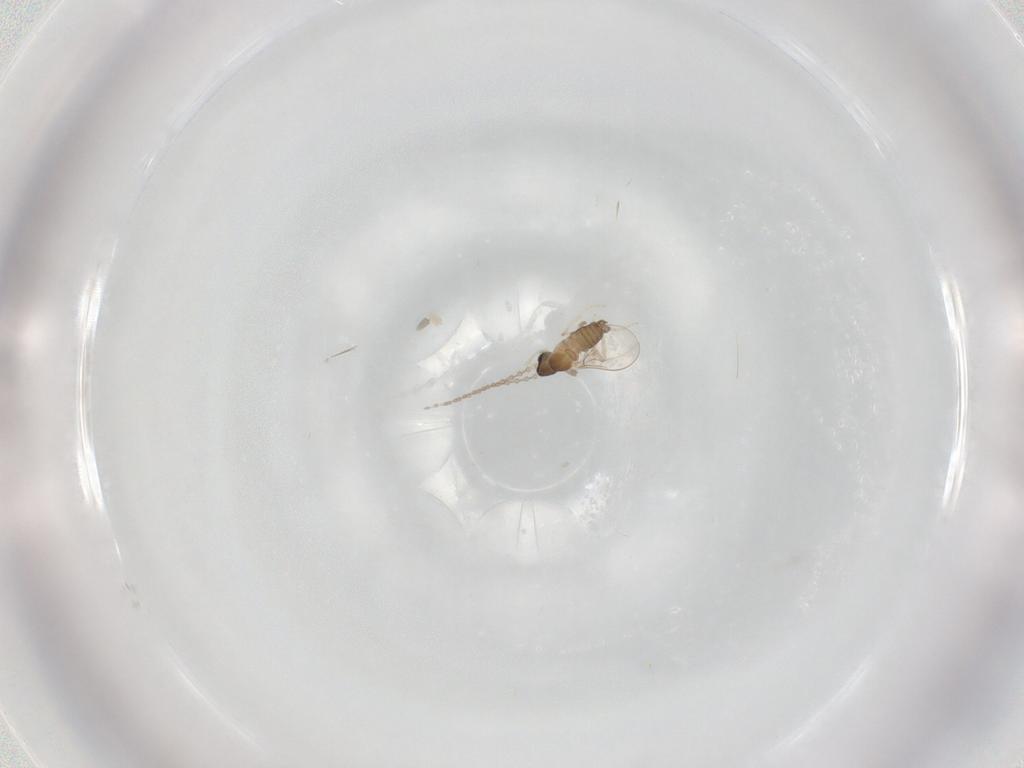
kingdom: Animalia
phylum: Arthropoda
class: Insecta
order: Diptera
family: Cecidomyiidae
